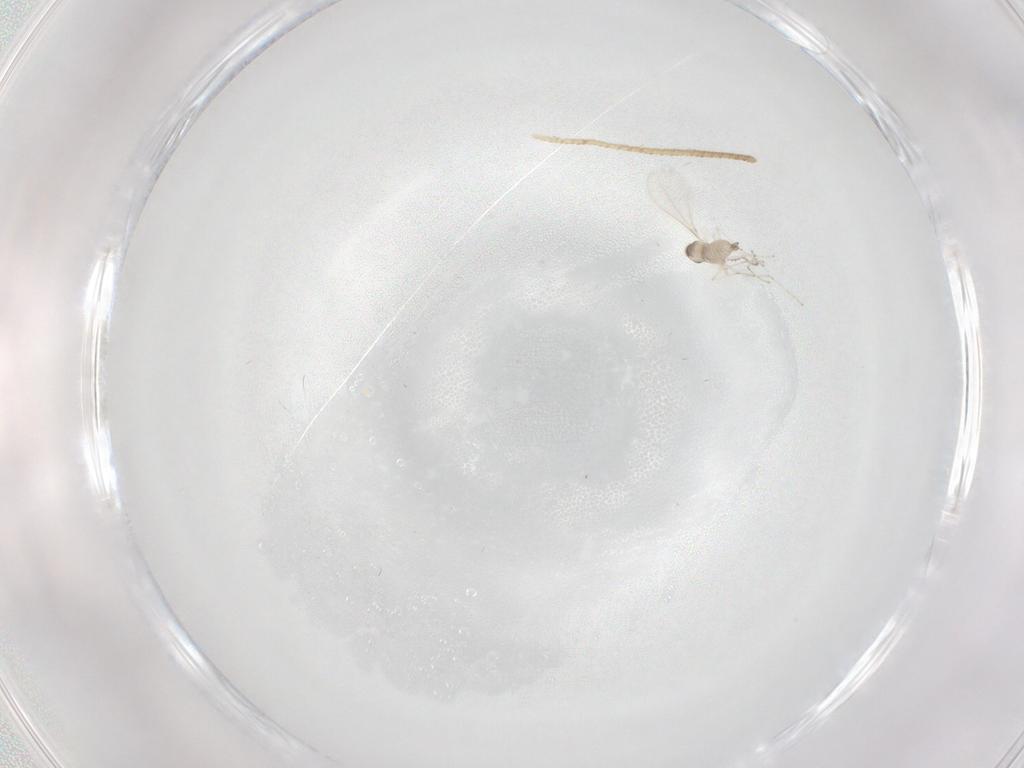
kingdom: Animalia
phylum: Arthropoda
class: Insecta
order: Diptera
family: Cecidomyiidae
